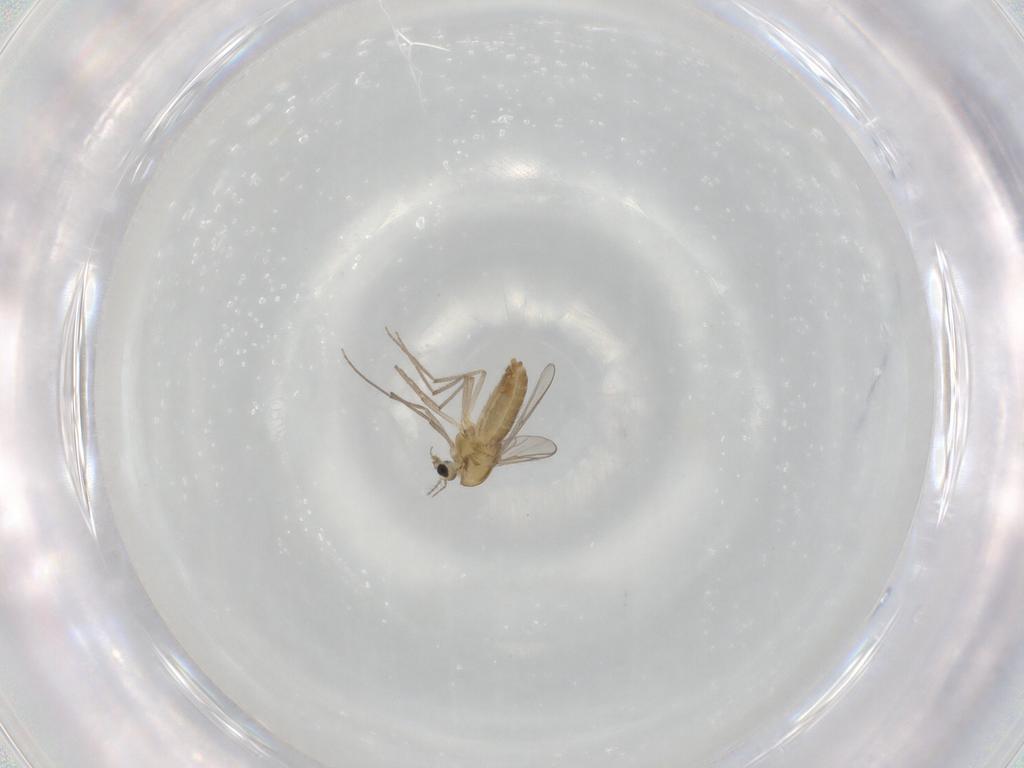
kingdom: Animalia
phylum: Arthropoda
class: Insecta
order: Diptera
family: Chironomidae
